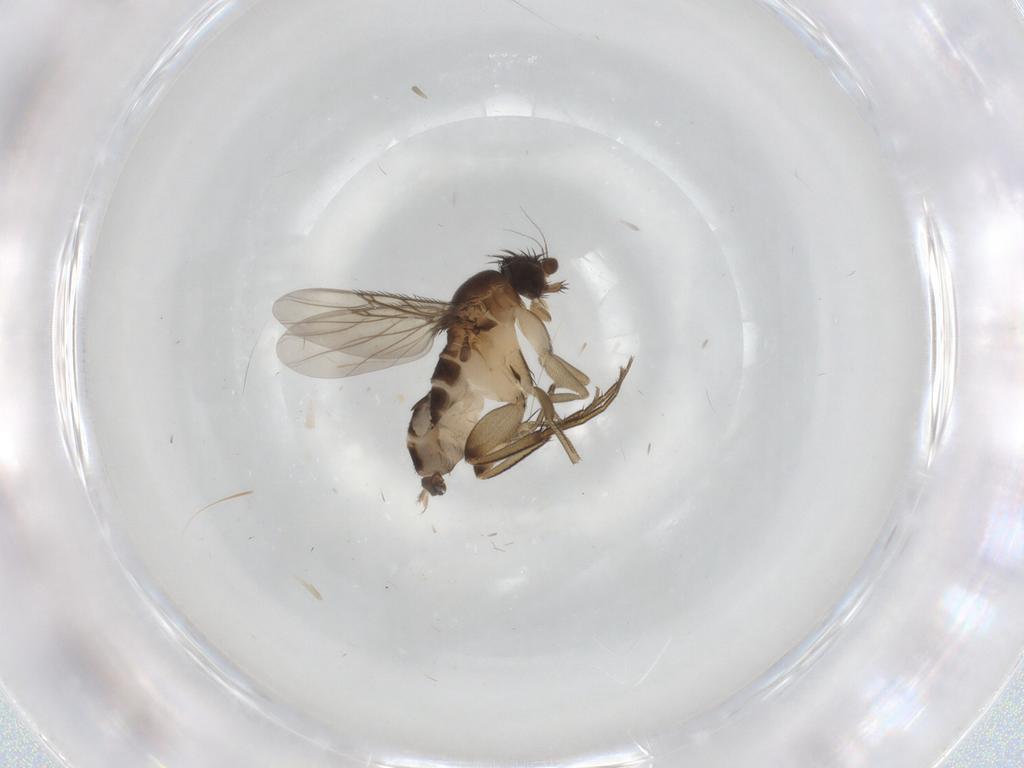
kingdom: Animalia
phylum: Arthropoda
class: Insecta
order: Diptera
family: Phoridae
